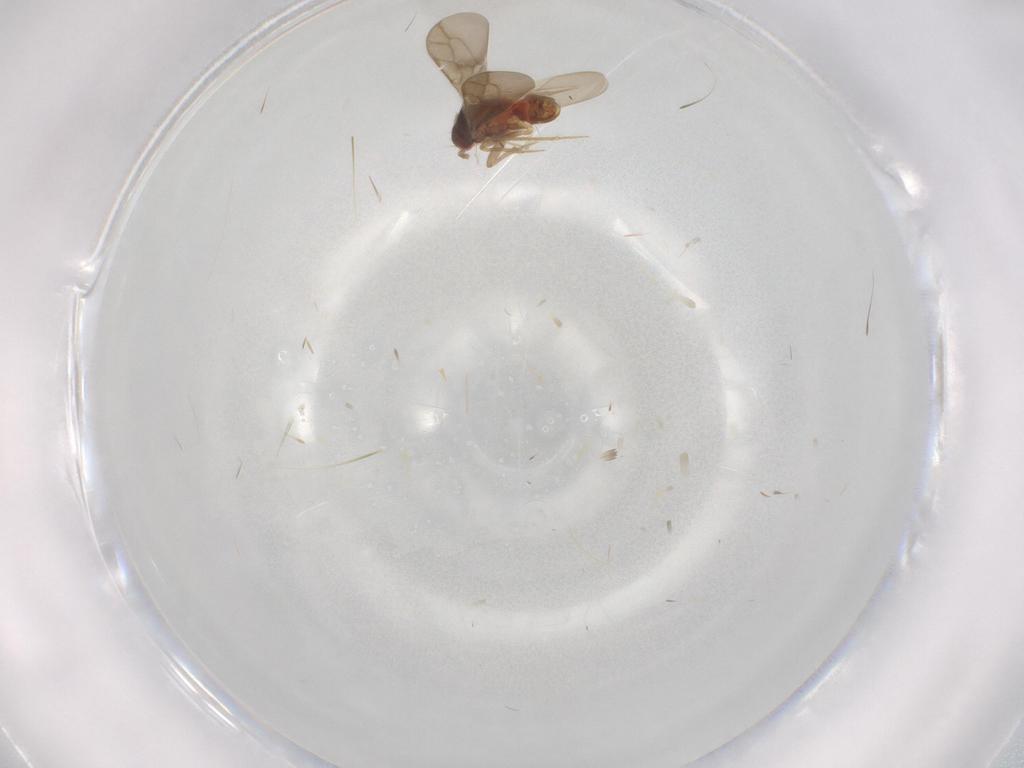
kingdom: Animalia
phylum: Arthropoda
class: Insecta
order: Hemiptera
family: Ceratocombidae
